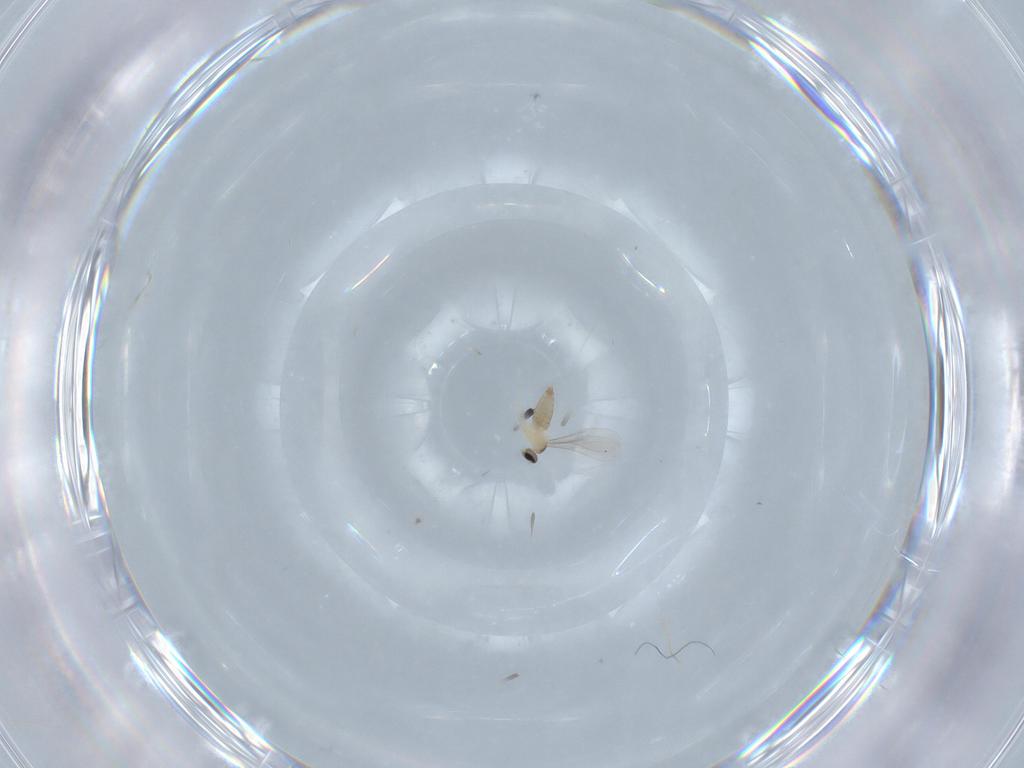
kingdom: Animalia
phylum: Arthropoda
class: Insecta
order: Diptera
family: Cecidomyiidae
